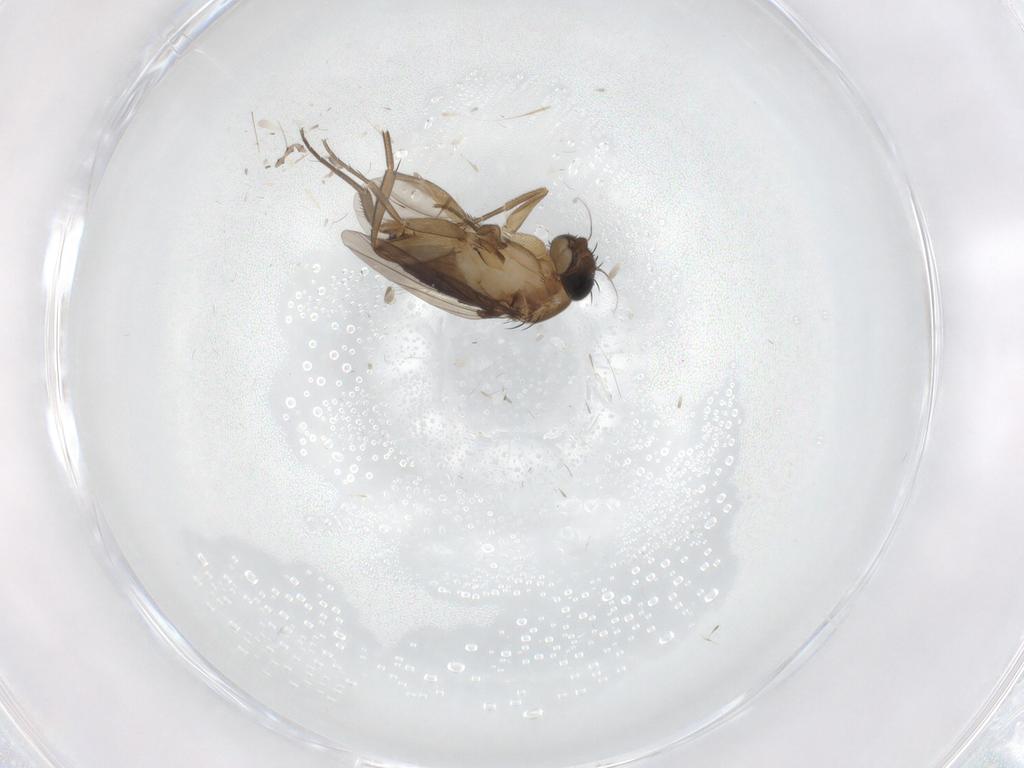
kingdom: Animalia
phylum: Arthropoda
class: Insecta
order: Diptera
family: Phoridae
